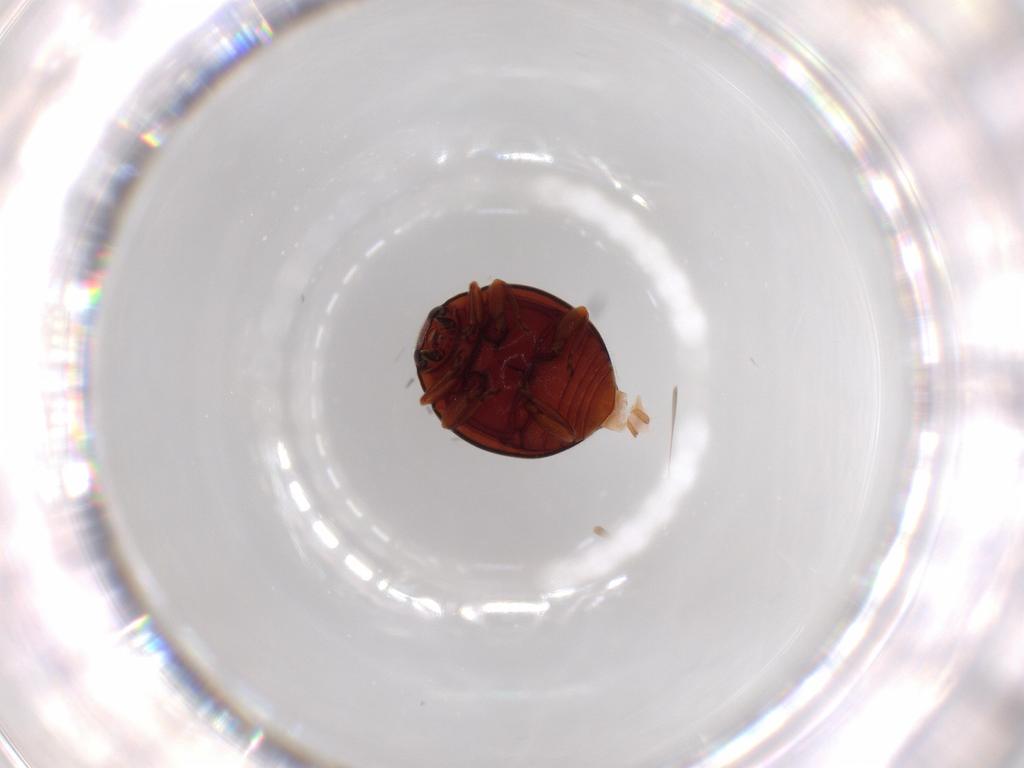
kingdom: Animalia
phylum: Arthropoda
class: Insecta
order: Coleoptera
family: Coccinellidae
